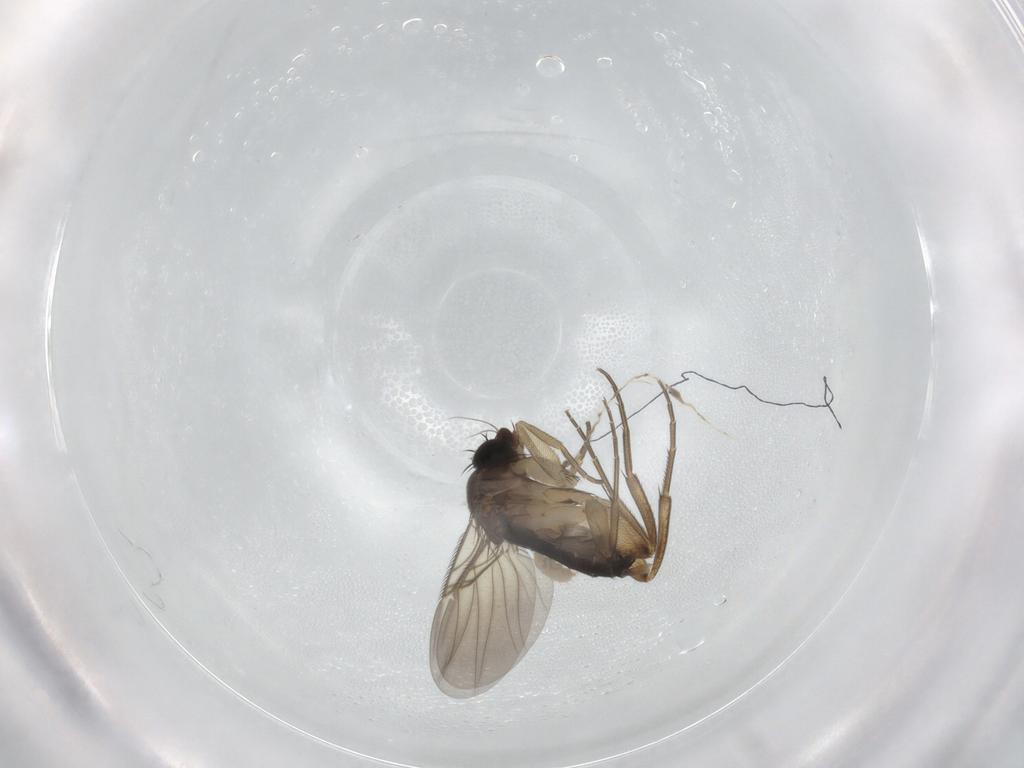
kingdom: Animalia
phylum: Arthropoda
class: Insecta
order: Diptera
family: Phoridae
